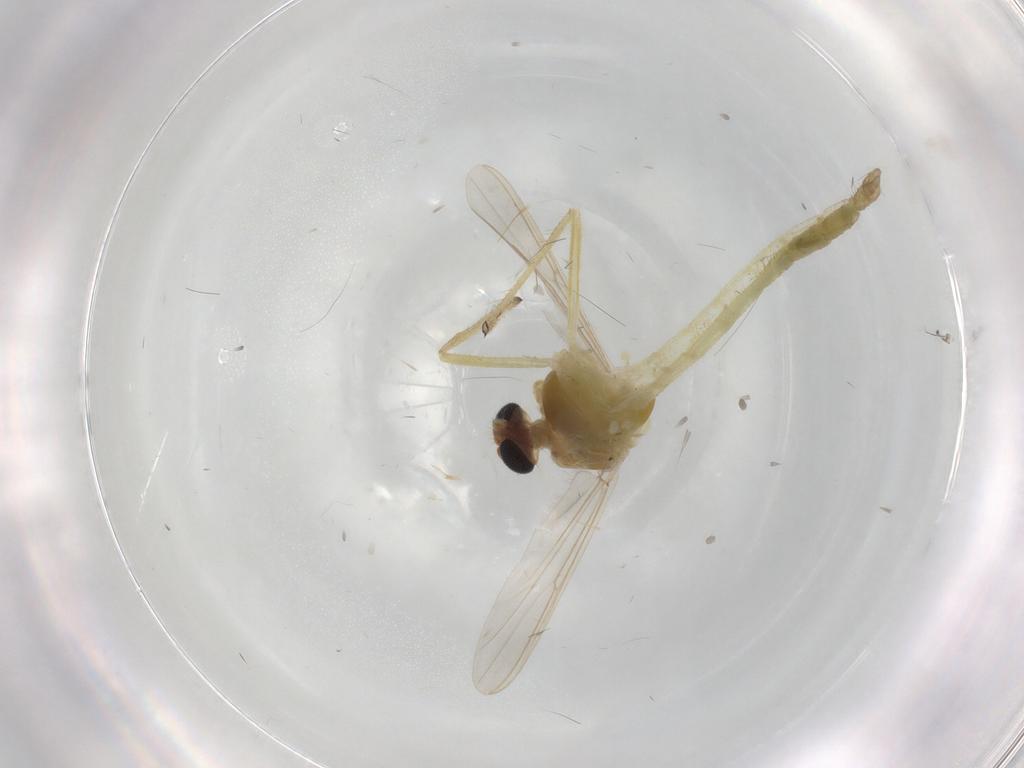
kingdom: Animalia
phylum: Arthropoda
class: Insecta
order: Diptera
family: Chironomidae
